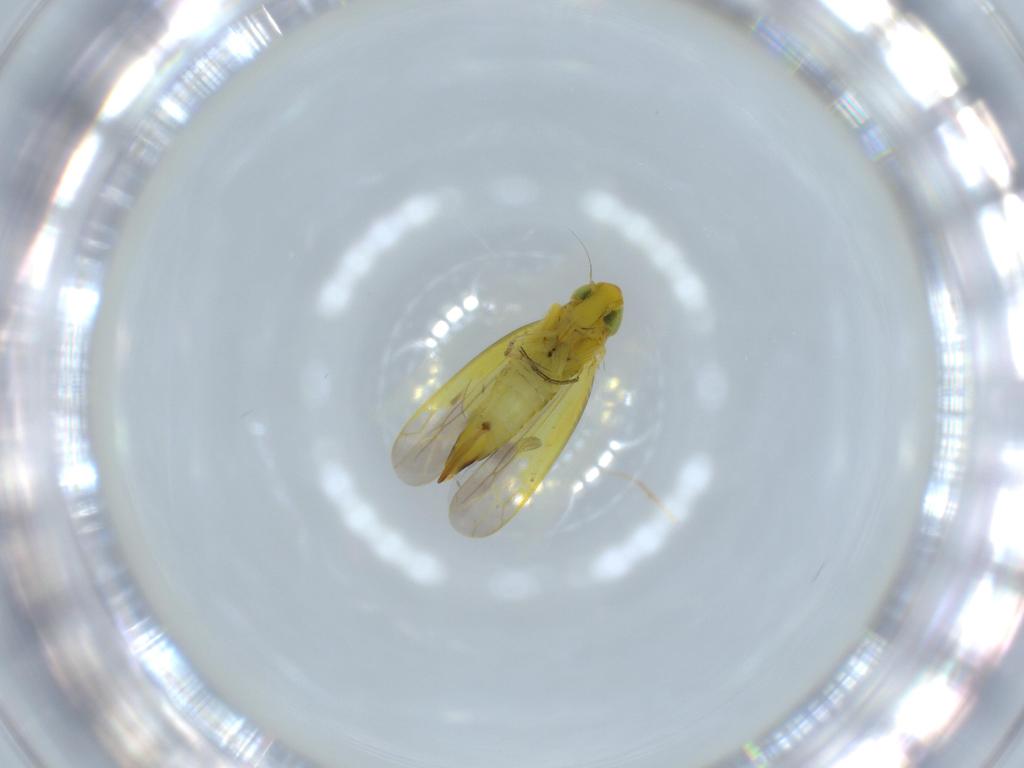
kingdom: Animalia
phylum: Arthropoda
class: Insecta
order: Hemiptera
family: Cicadellidae
